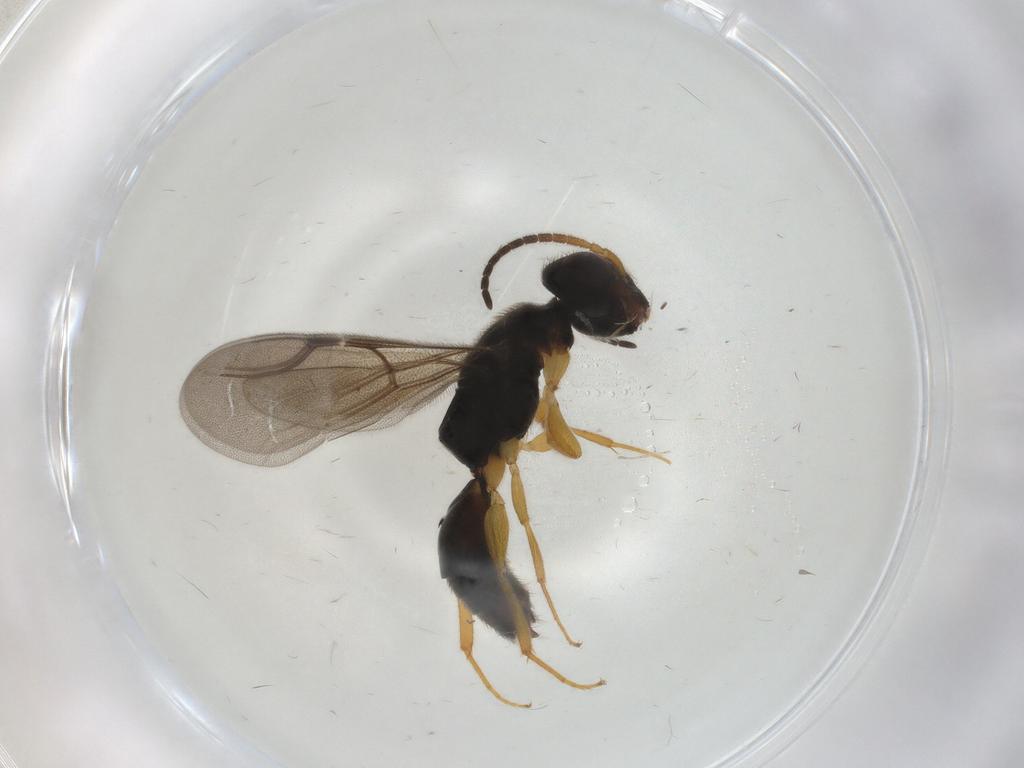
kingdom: Animalia
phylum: Arthropoda
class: Insecta
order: Hymenoptera
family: Bethylidae
